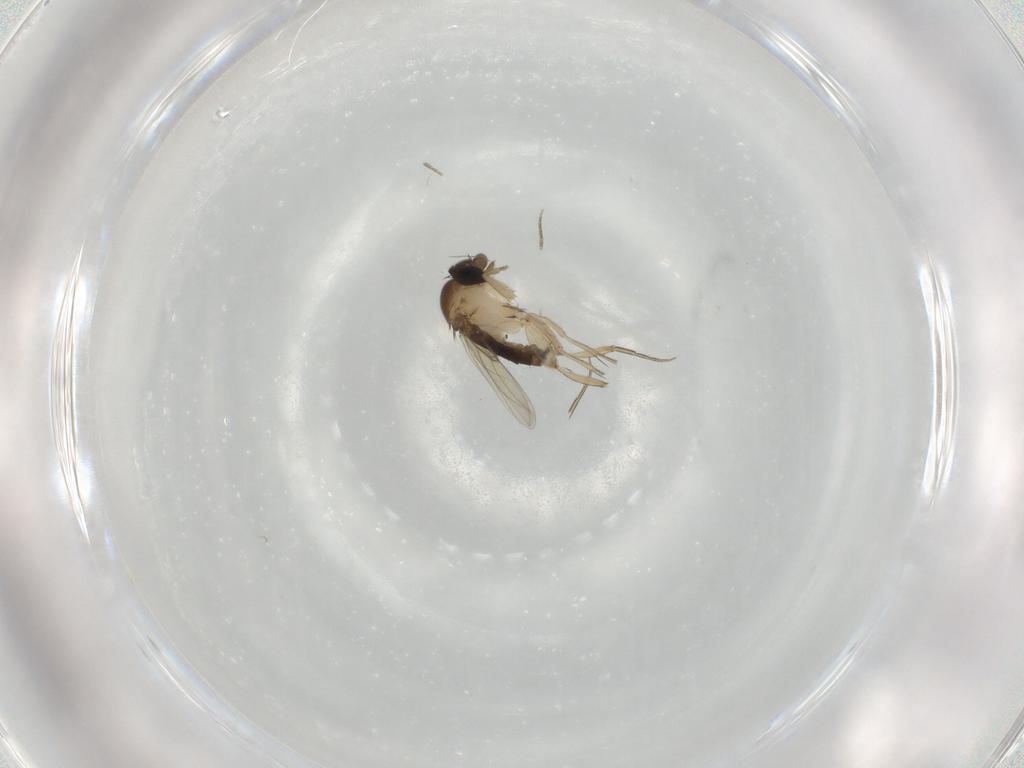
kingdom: Animalia
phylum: Arthropoda
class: Insecta
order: Diptera
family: Phoridae
